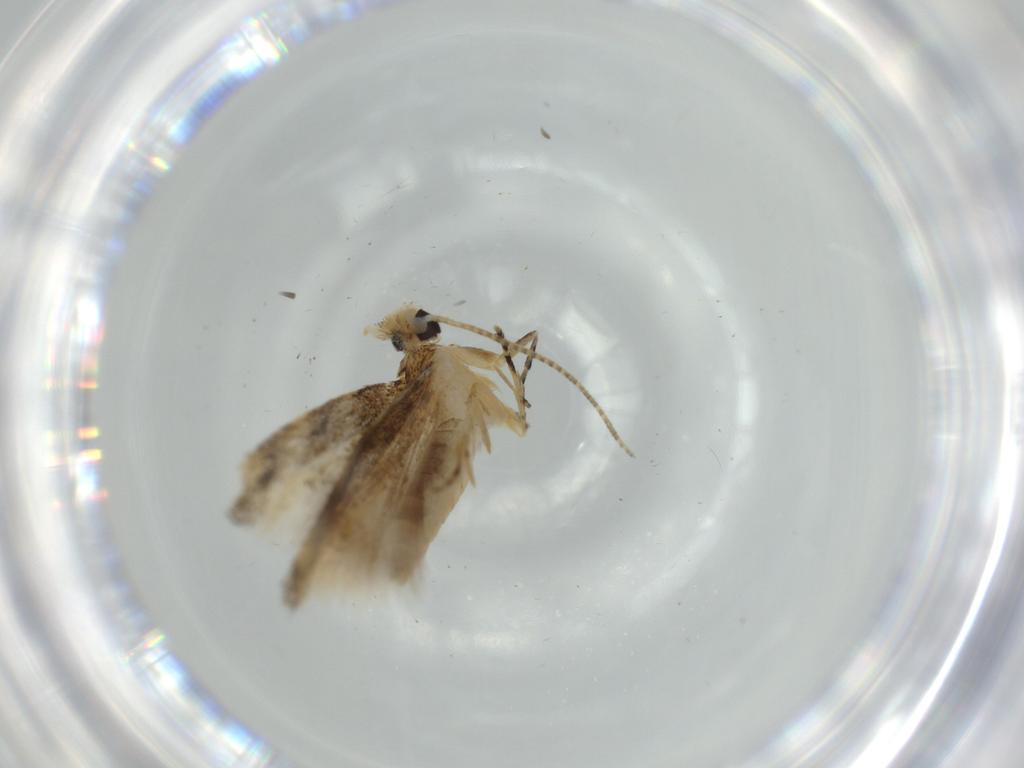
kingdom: Animalia
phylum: Arthropoda
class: Insecta
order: Lepidoptera
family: Bucculatricidae
